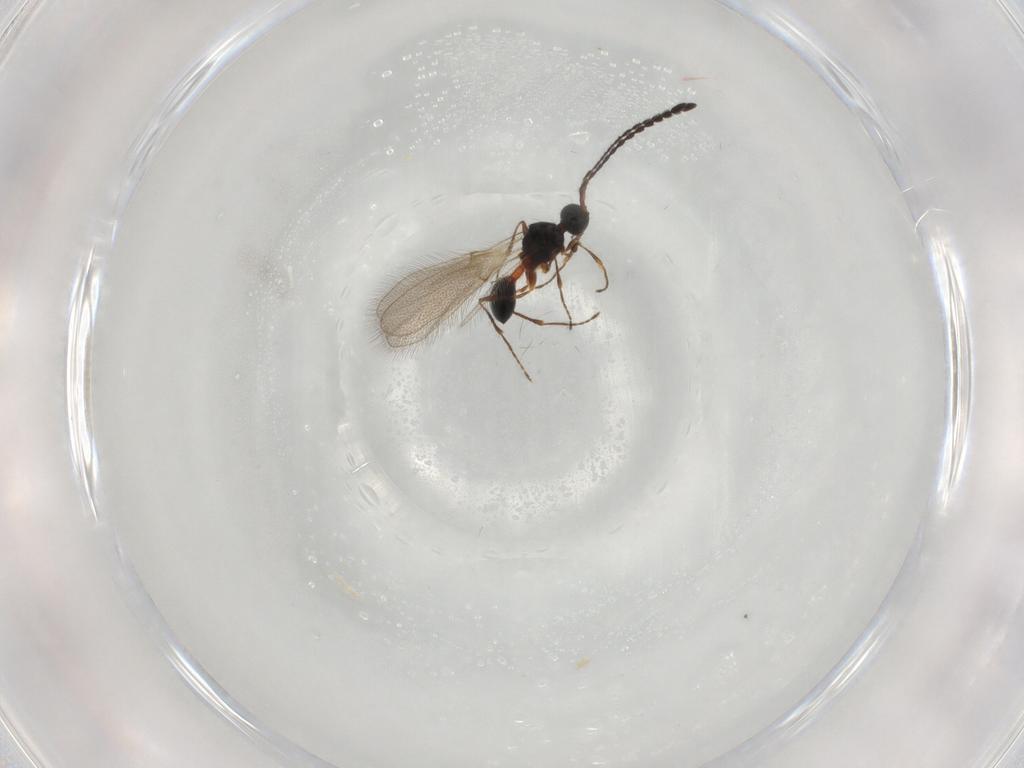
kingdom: Animalia
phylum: Arthropoda
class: Insecta
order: Hymenoptera
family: Diapriidae
